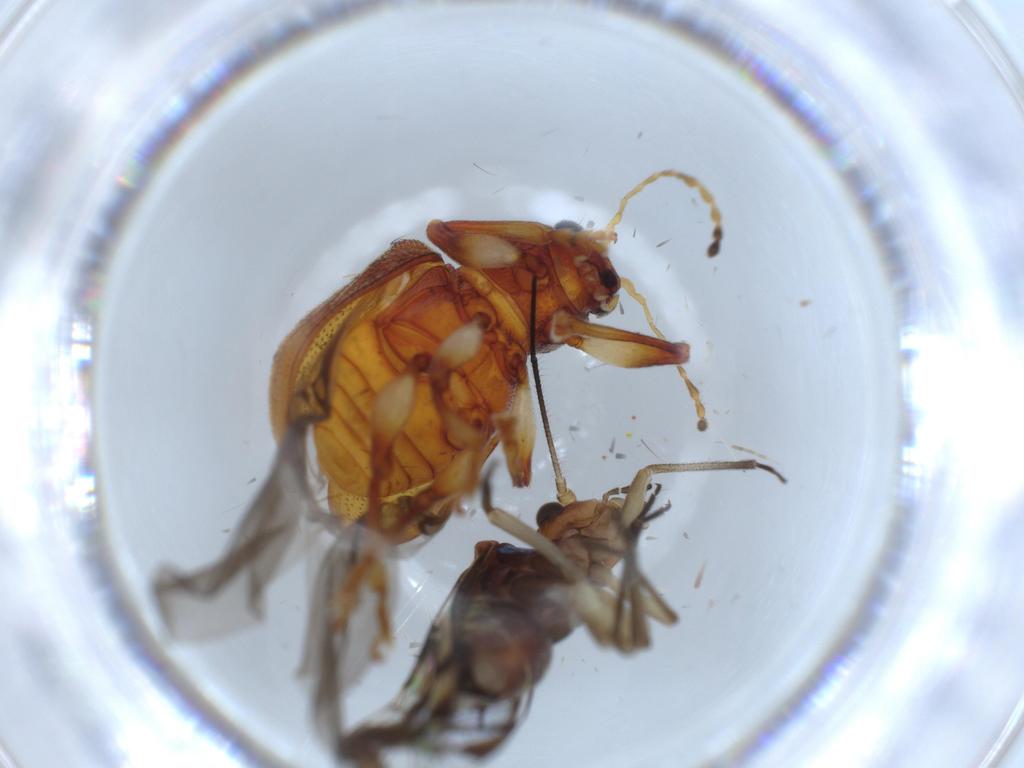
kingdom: Animalia
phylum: Arthropoda
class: Insecta
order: Psocodea
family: Psocidae
